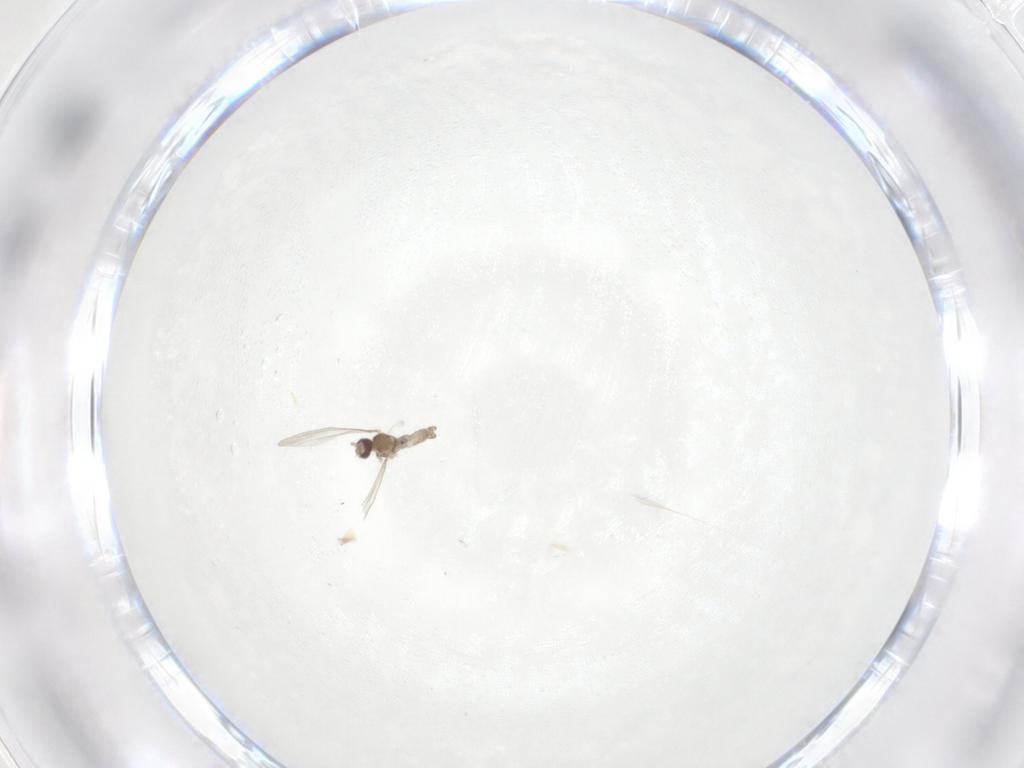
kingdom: Animalia
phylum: Arthropoda
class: Insecta
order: Diptera
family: Cecidomyiidae
